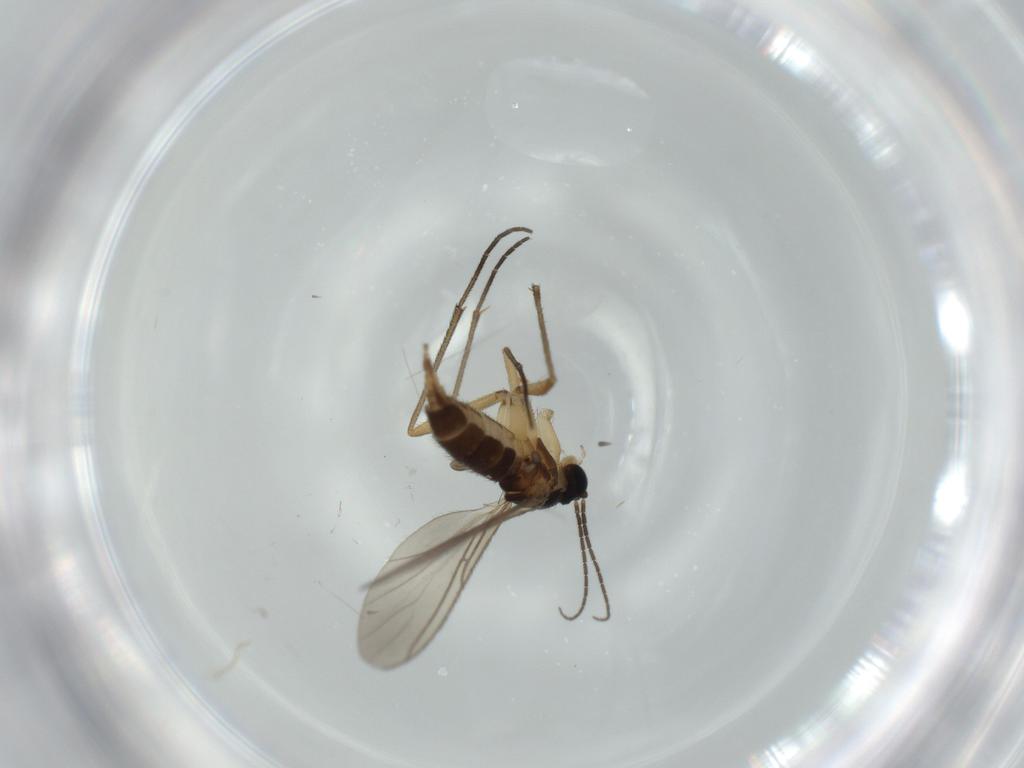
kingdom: Animalia
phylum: Arthropoda
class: Insecta
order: Diptera
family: Sciaridae
